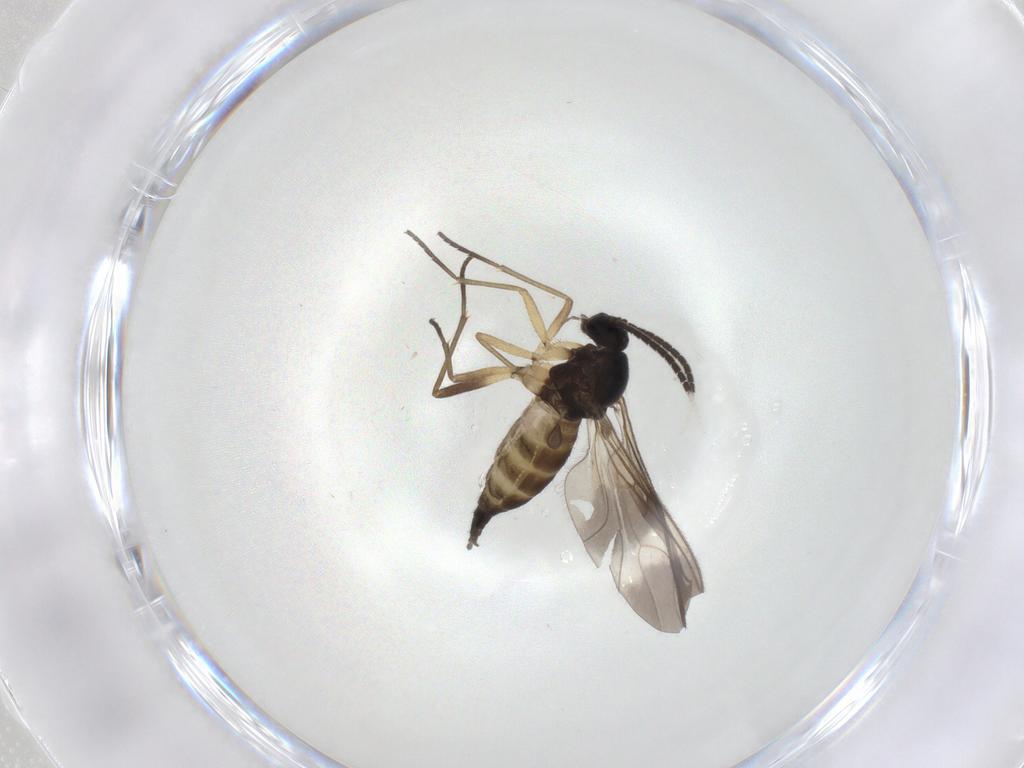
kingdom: Animalia
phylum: Arthropoda
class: Insecta
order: Diptera
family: Sciaridae
